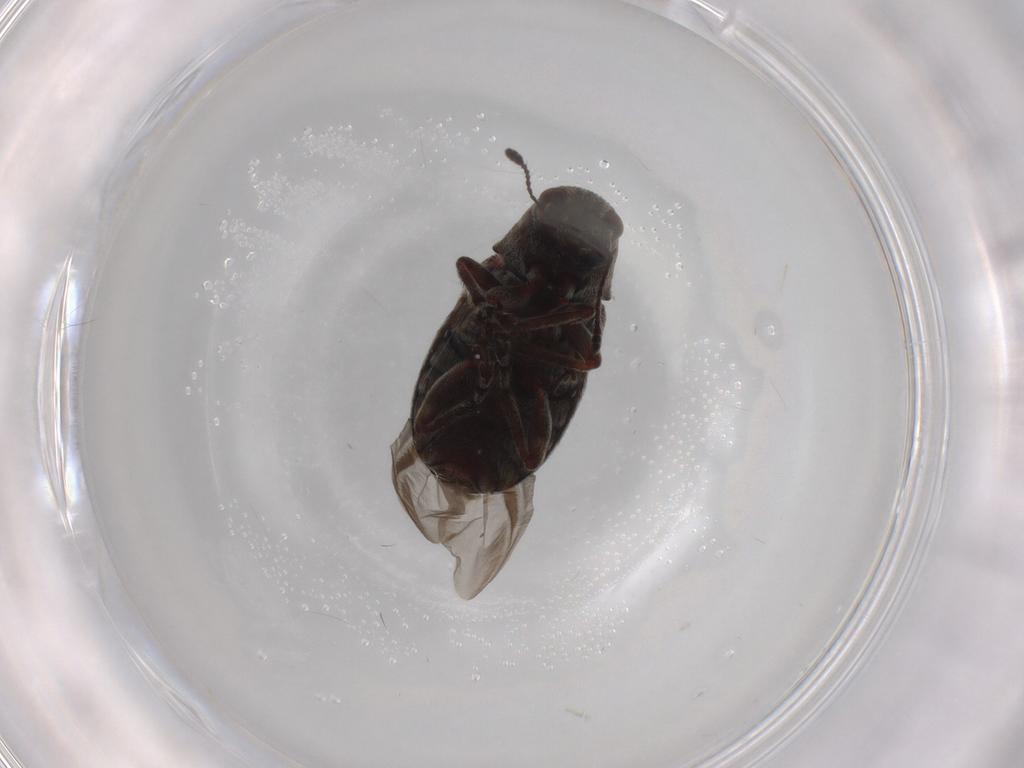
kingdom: Animalia
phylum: Arthropoda
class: Insecta
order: Coleoptera
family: Anthribidae
